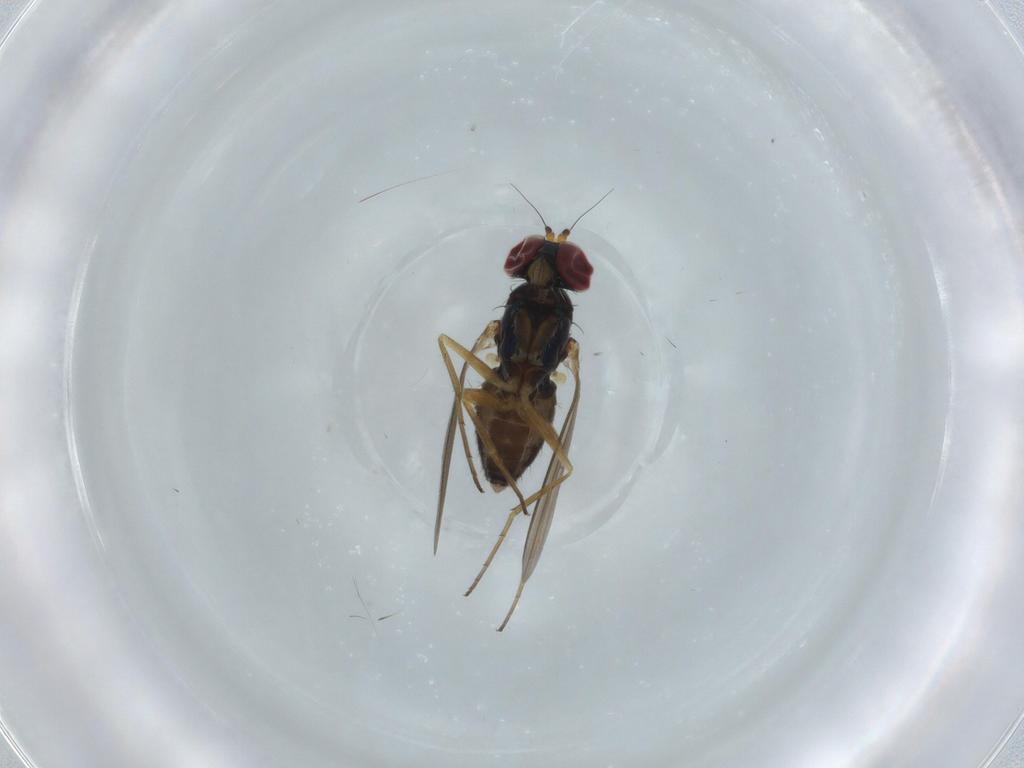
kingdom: Animalia
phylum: Arthropoda
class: Insecta
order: Diptera
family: Dolichopodidae
